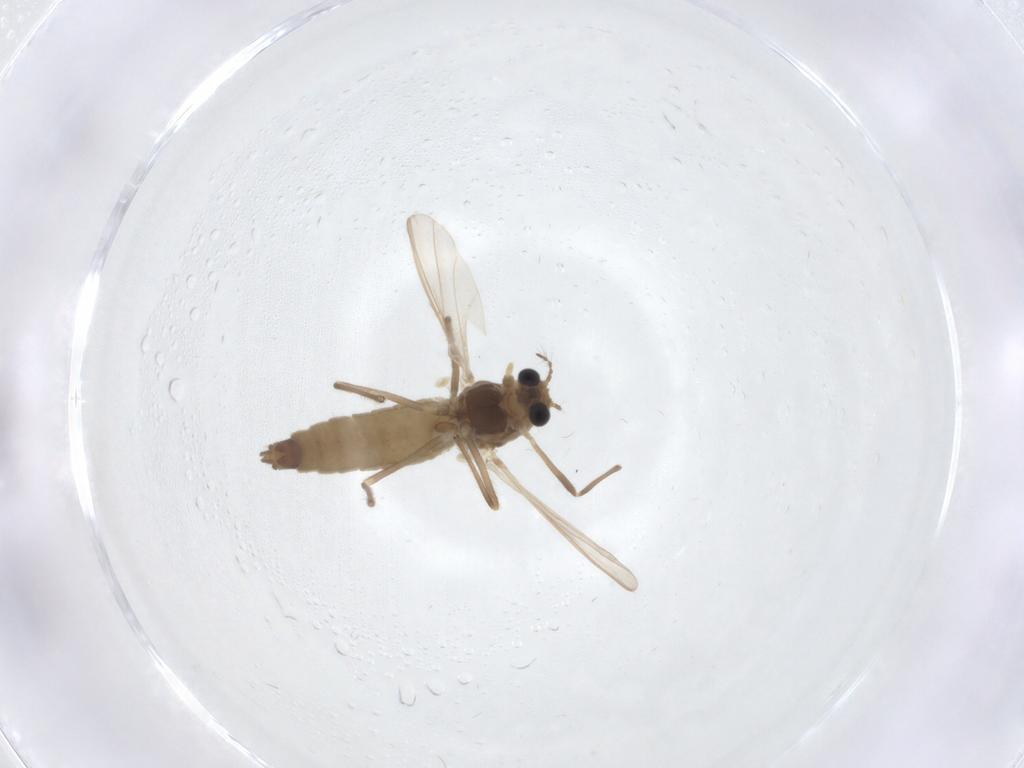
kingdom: Animalia
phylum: Arthropoda
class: Insecta
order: Diptera
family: Chironomidae
